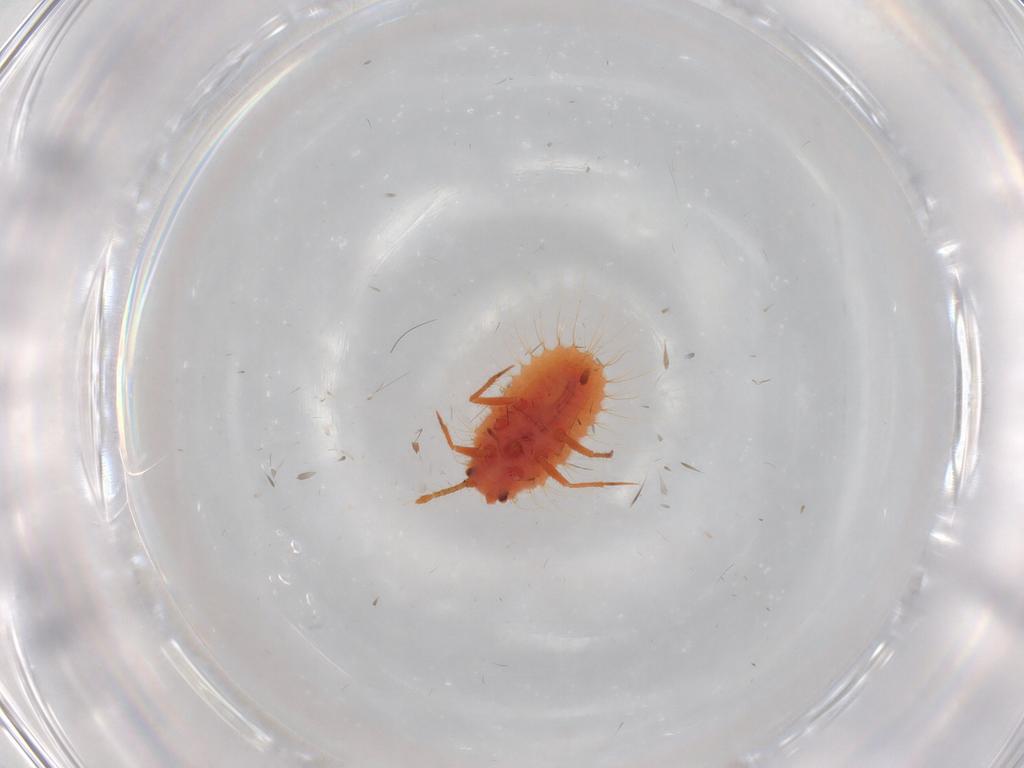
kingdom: Animalia
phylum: Arthropoda
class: Insecta
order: Hemiptera
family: Coccoidea_incertae_sedis
